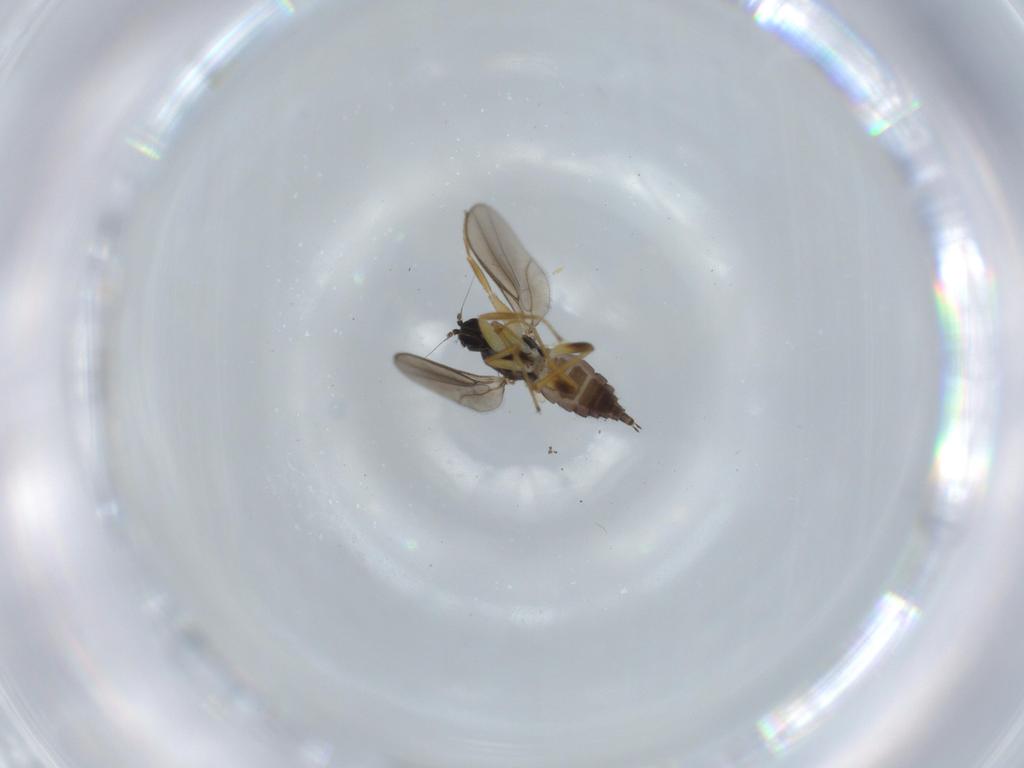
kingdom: Animalia
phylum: Arthropoda
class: Insecta
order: Diptera
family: Hybotidae
